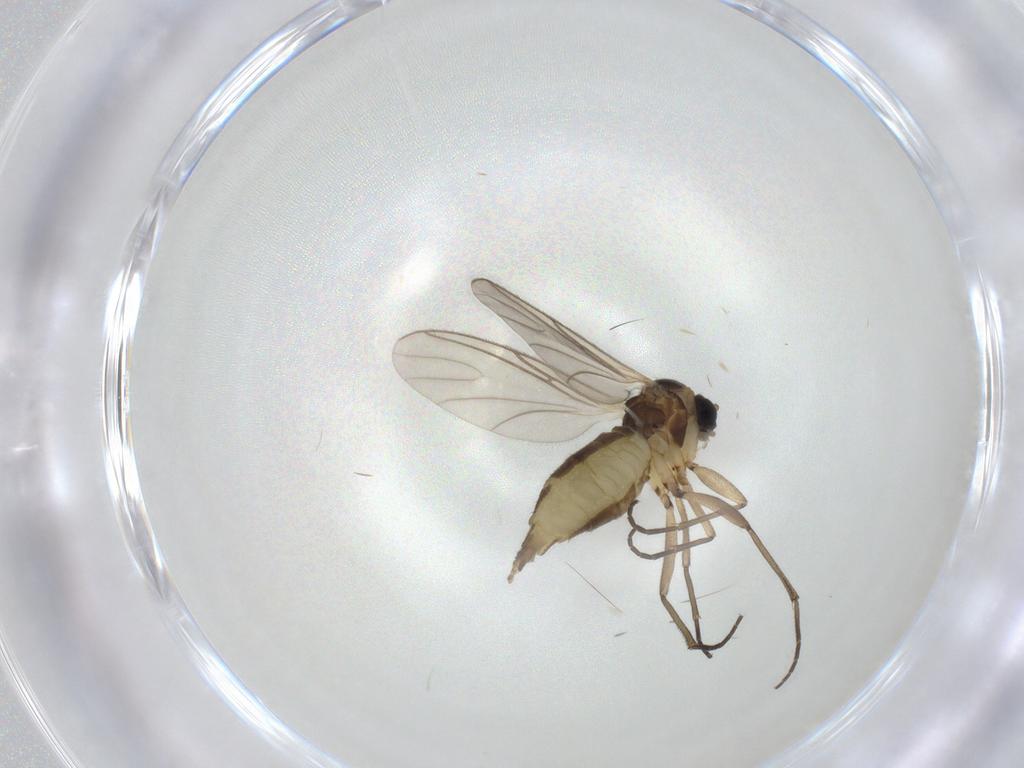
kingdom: Animalia
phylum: Arthropoda
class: Insecta
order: Diptera
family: Cecidomyiidae
